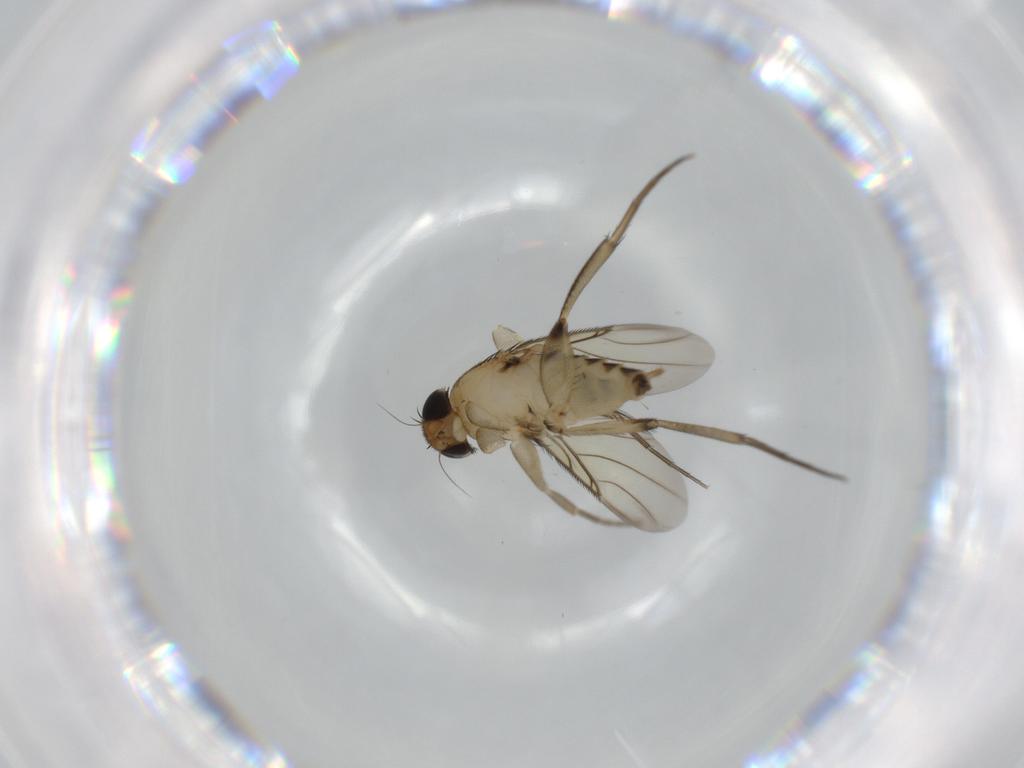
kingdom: Animalia
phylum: Arthropoda
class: Insecta
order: Diptera
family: Phoridae
